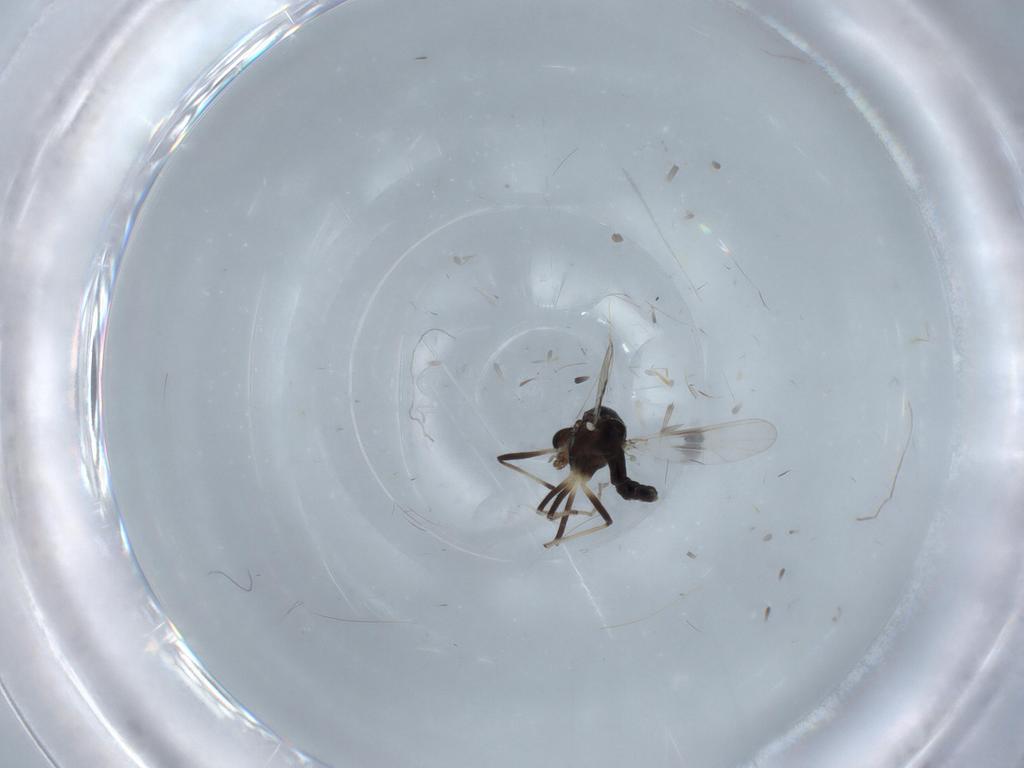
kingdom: Animalia
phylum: Arthropoda
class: Insecta
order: Diptera
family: Chironomidae
